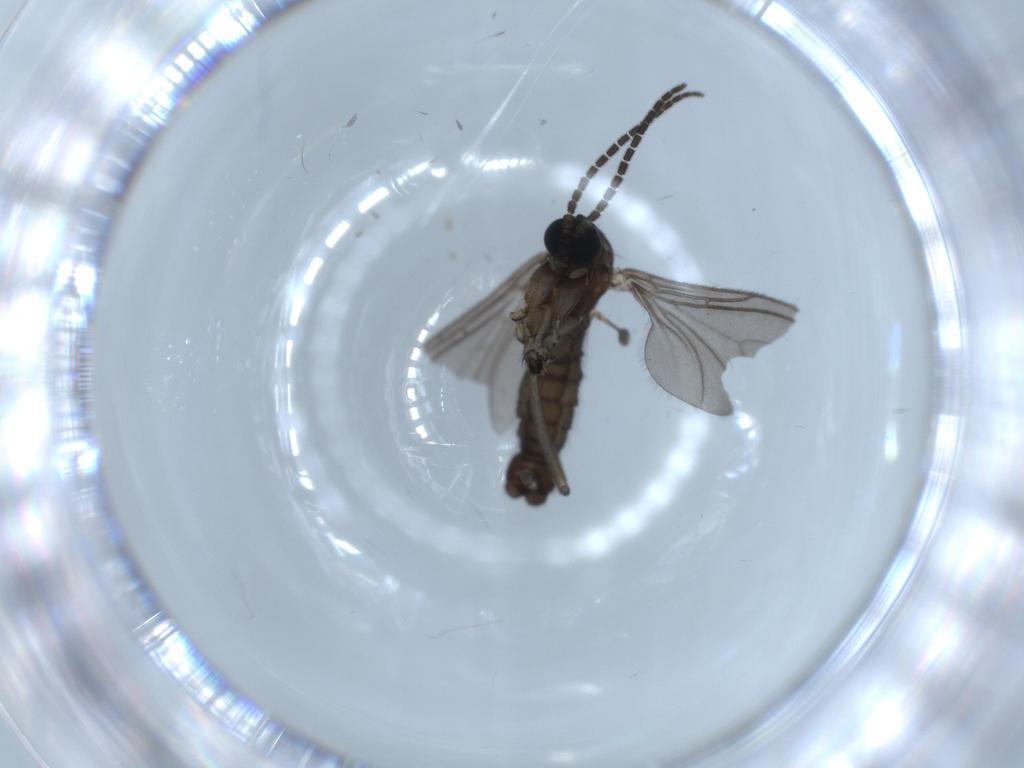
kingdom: Animalia
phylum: Arthropoda
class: Insecta
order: Diptera
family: Sciaridae
